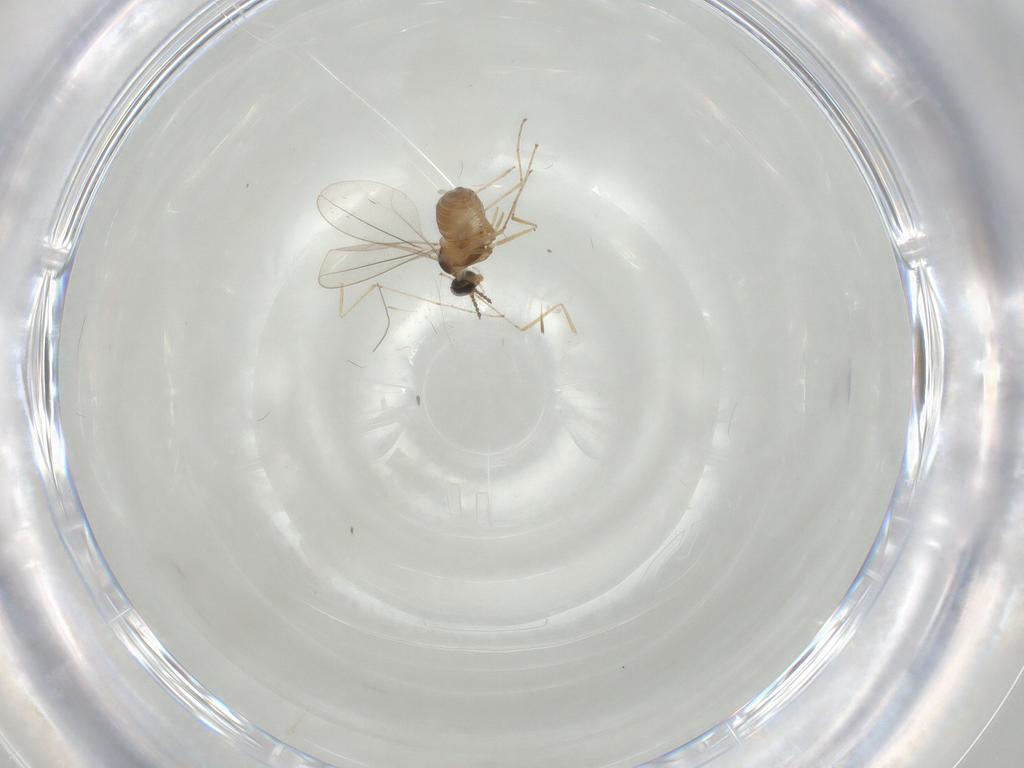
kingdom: Animalia
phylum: Arthropoda
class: Insecta
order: Diptera
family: Cecidomyiidae
